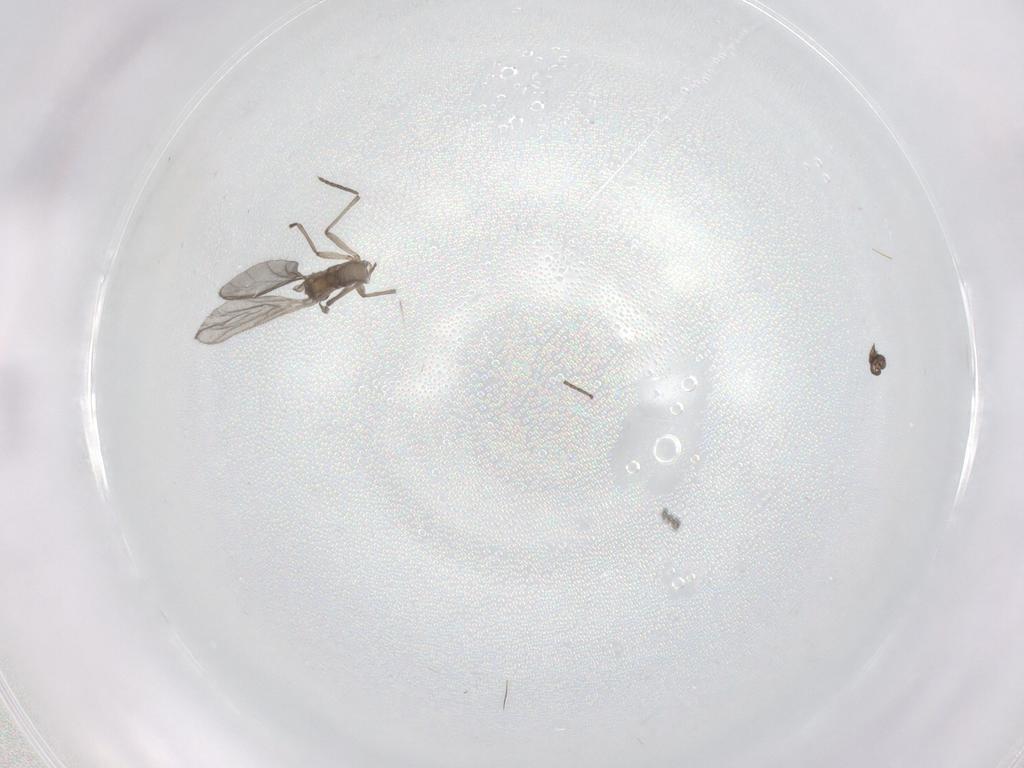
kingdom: Animalia
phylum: Arthropoda
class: Insecta
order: Diptera
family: Sciaridae
